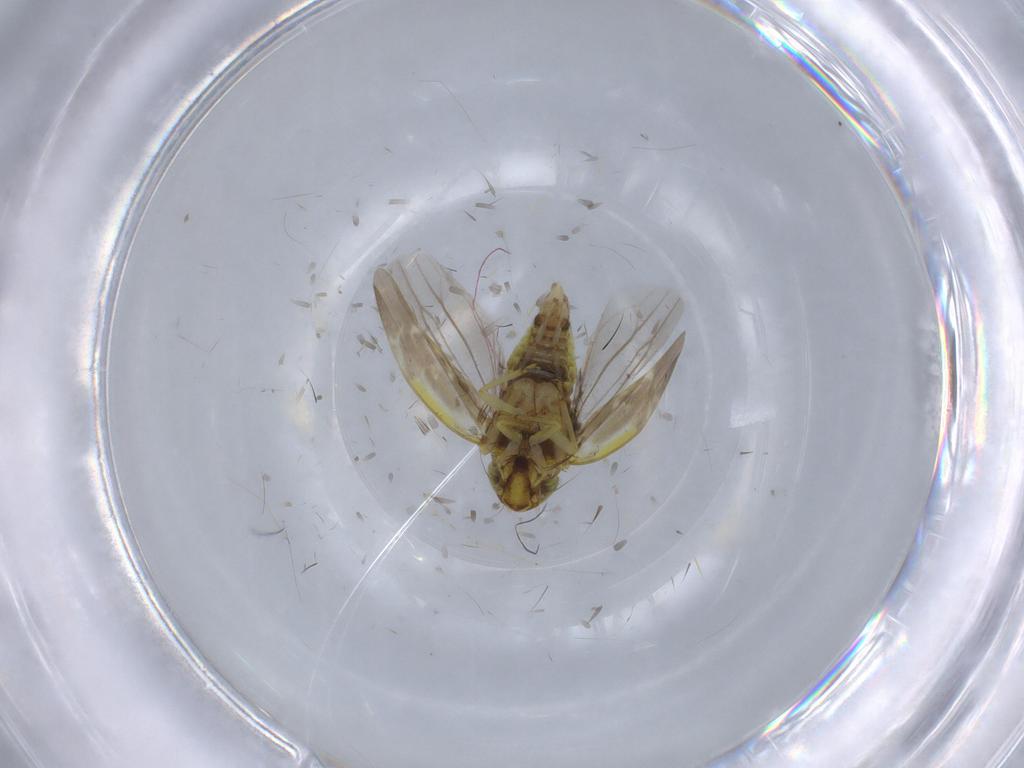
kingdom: Animalia
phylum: Arthropoda
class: Insecta
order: Hemiptera
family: Cicadellidae
